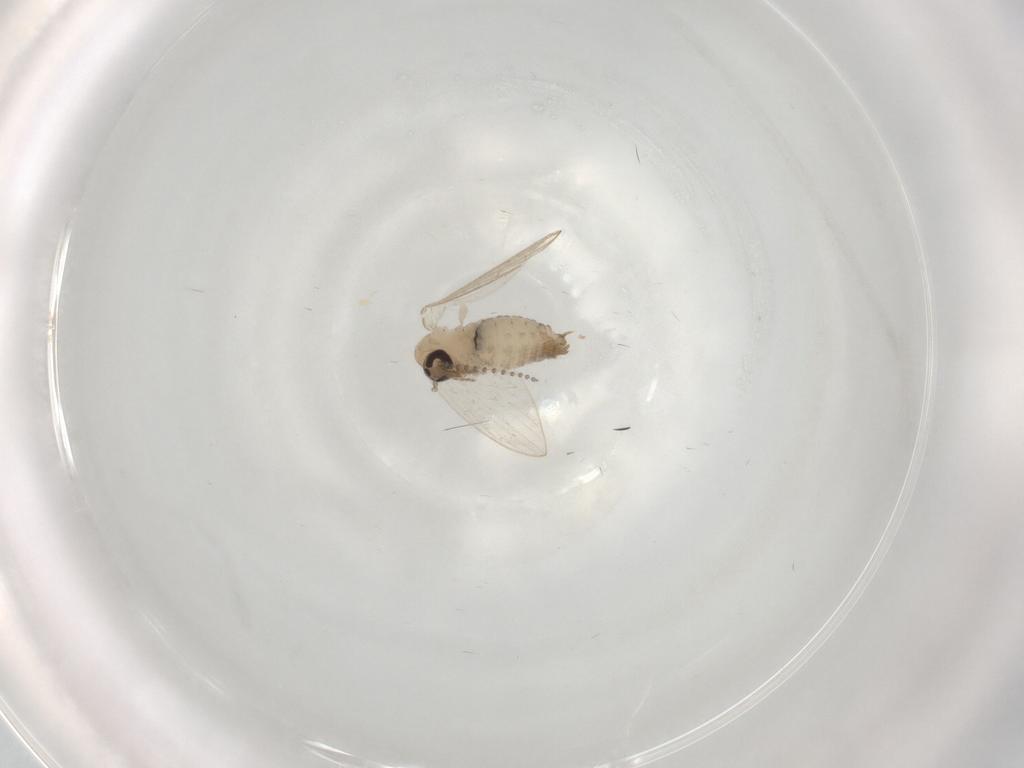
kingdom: Animalia
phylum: Arthropoda
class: Insecta
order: Diptera
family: Psychodidae
